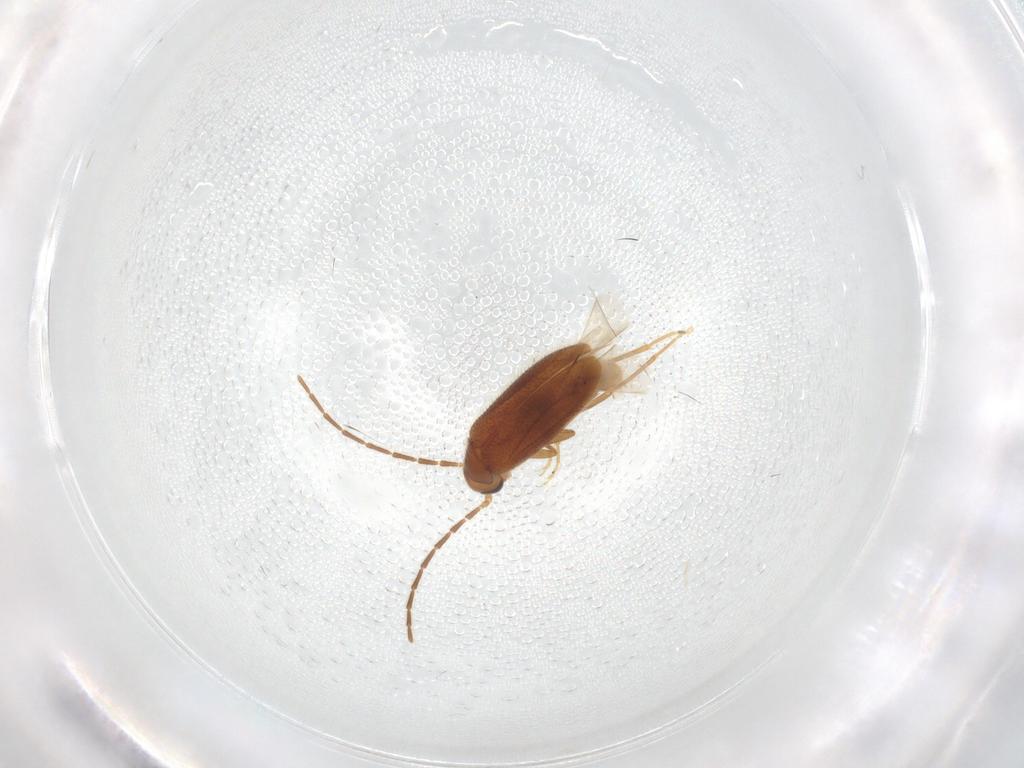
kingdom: Animalia
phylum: Arthropoda
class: Insecta
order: Coleoptera
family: Scraptiidae
